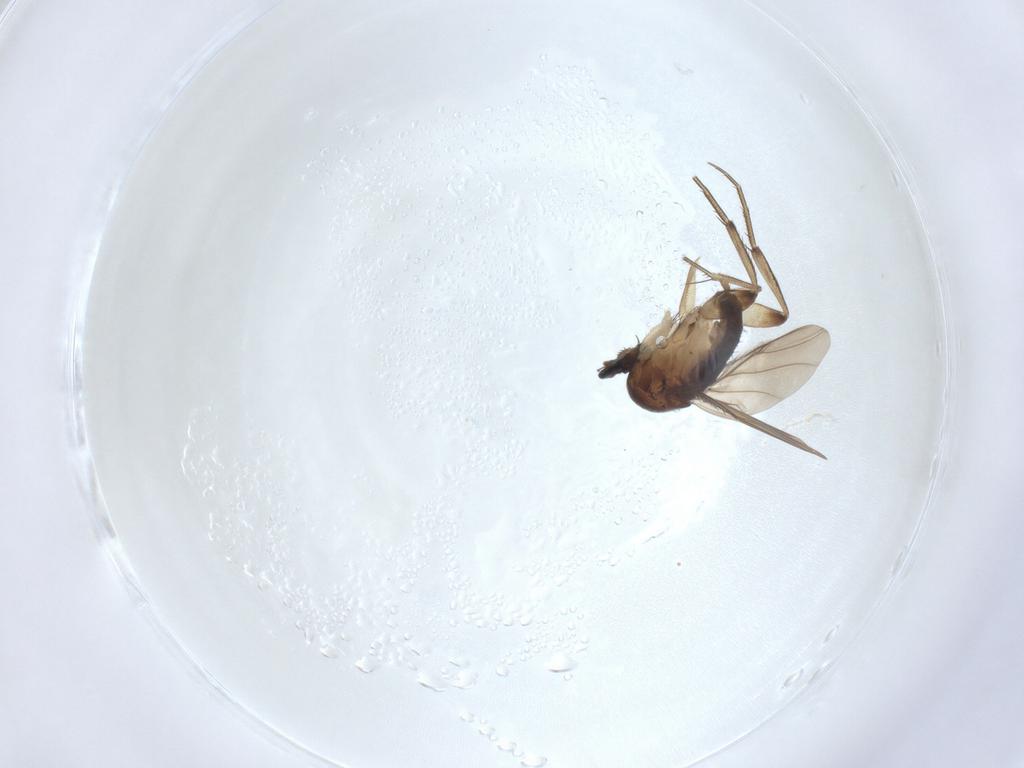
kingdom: Animalia
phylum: Arthropoda
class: Insecta
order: Diptera
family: Phoridae
